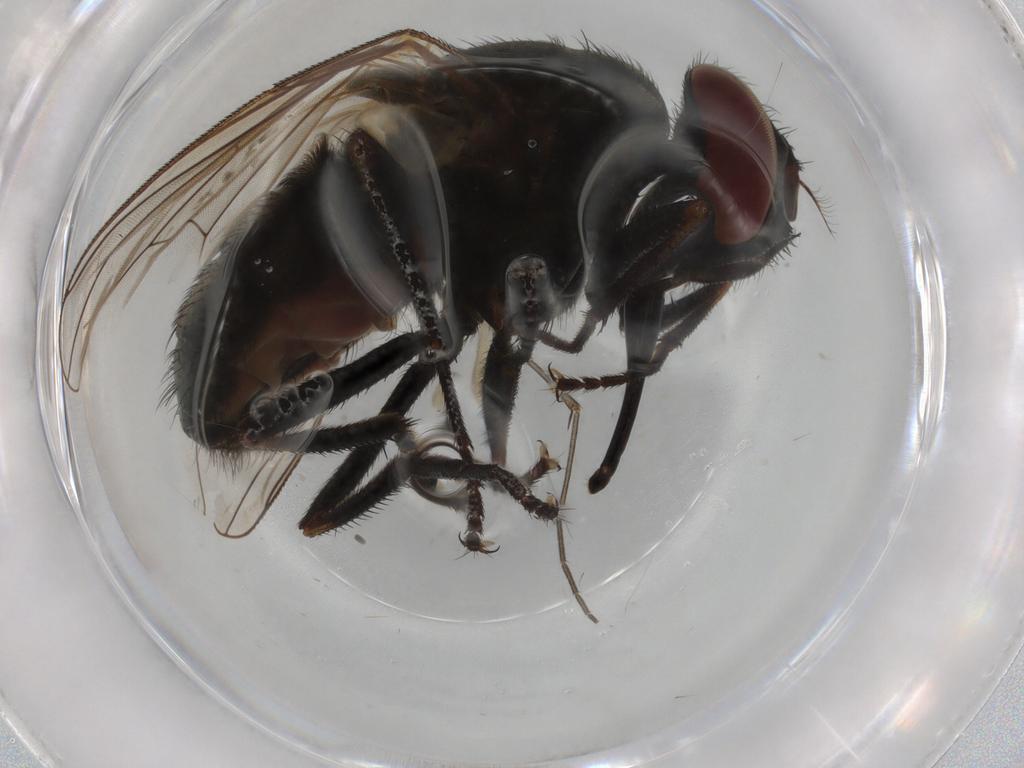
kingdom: Animalia
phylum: Arthropoda
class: Insecta
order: Diptera
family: Muscidae
